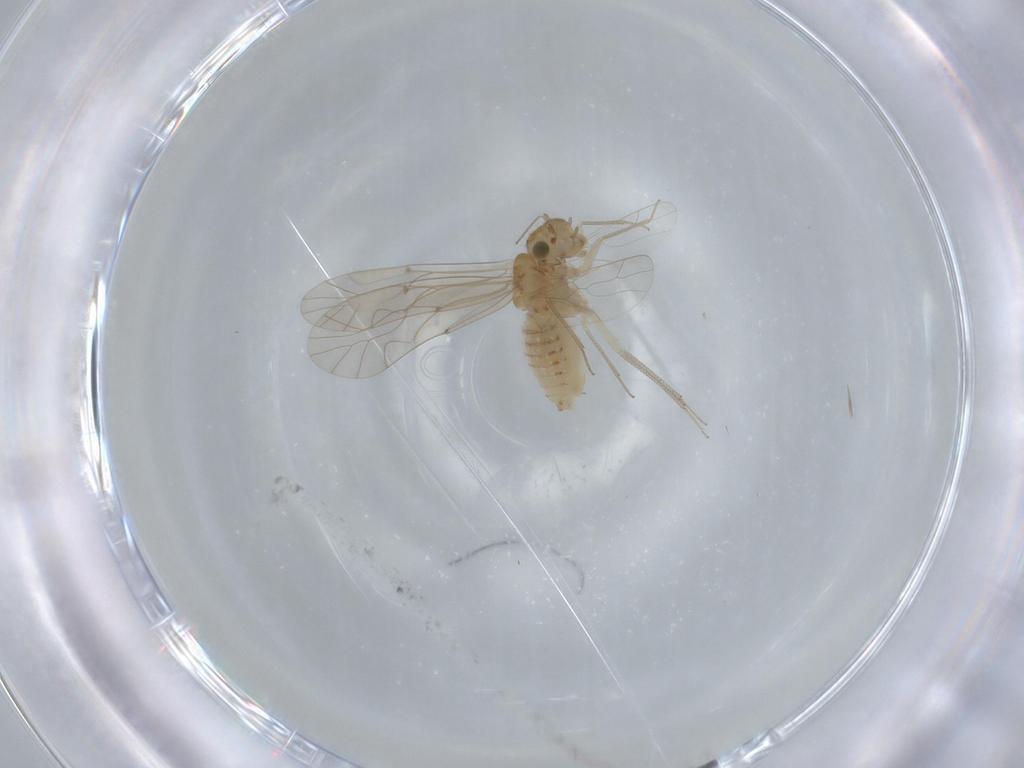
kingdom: Animalia
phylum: Arthropoda
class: Insecta
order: Psocodea
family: Lachesillidae
